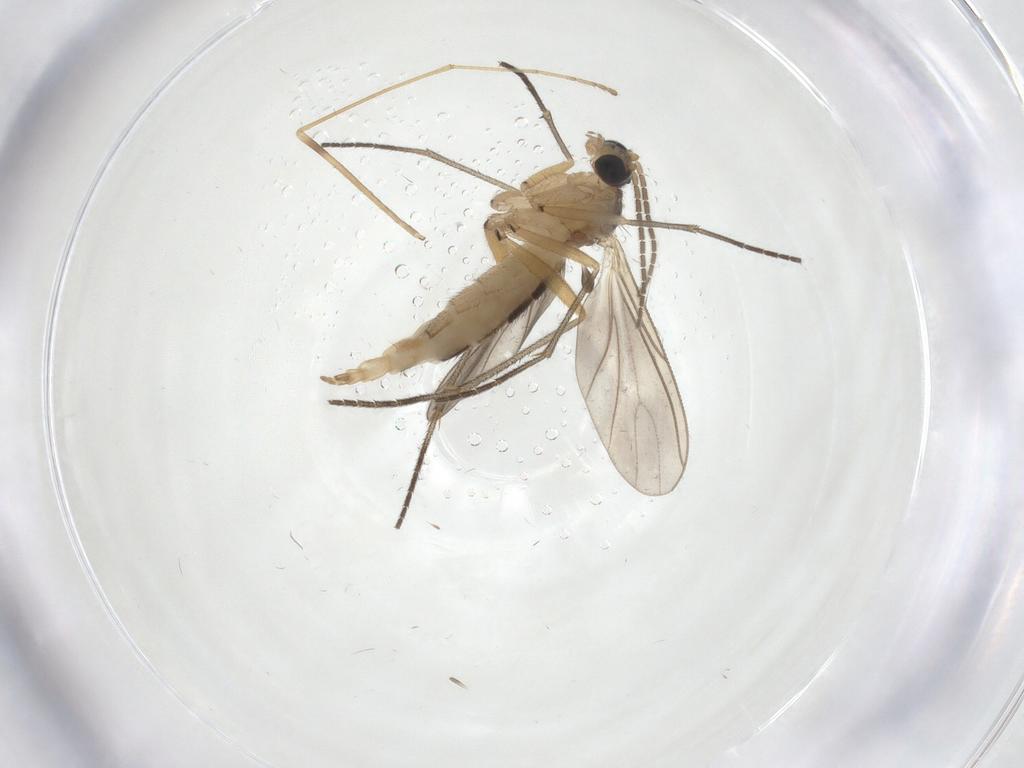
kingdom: Animalia
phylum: Arthropoda
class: Insecta
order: Diptera
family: Sciaridae
